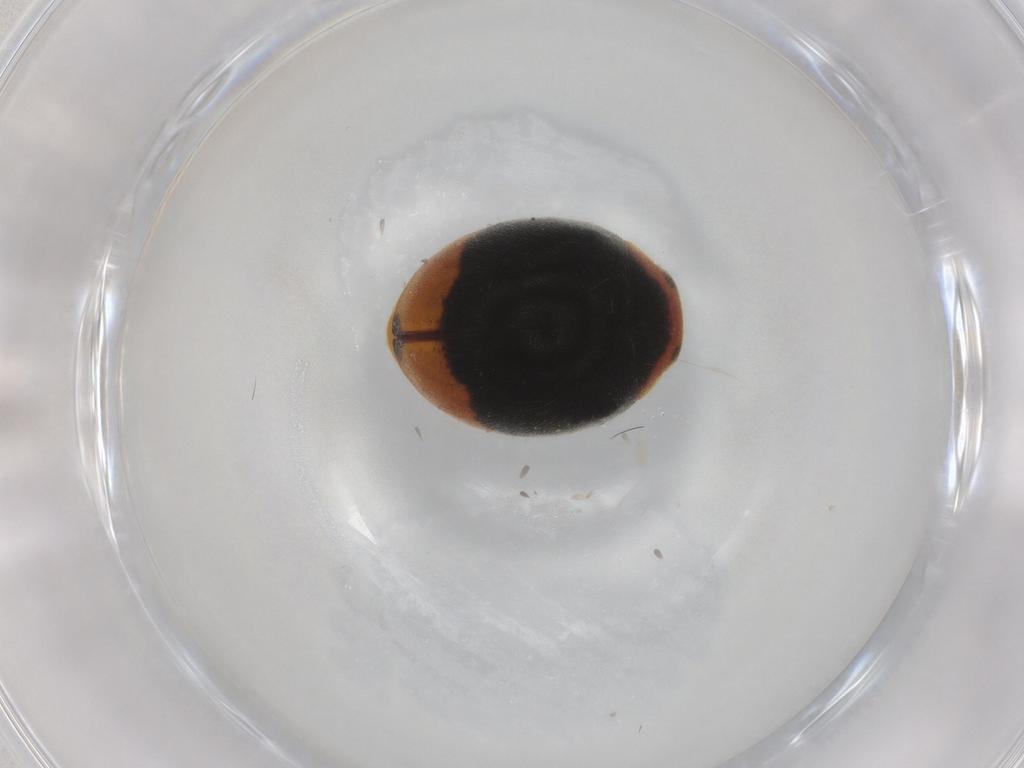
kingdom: Animalia
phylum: Arthropoda
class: Insecta
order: Coleoptera
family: Coccinellidae
